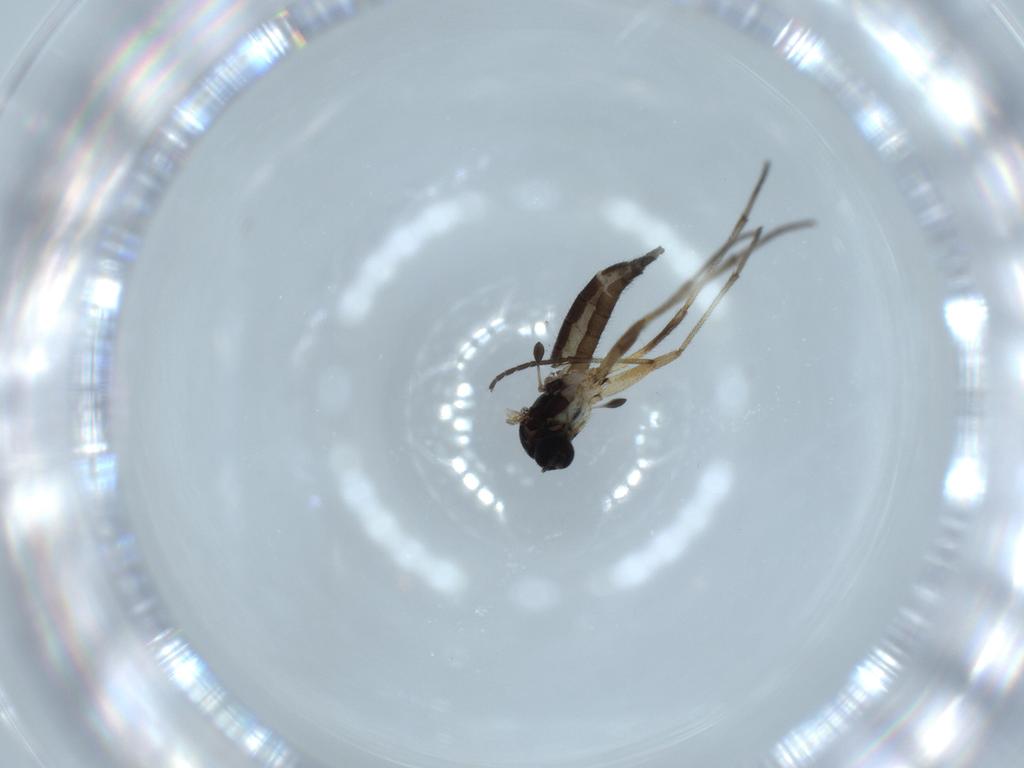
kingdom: Animalia
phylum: Arthropoda
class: Insecta
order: Diptera
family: Sciaridae
